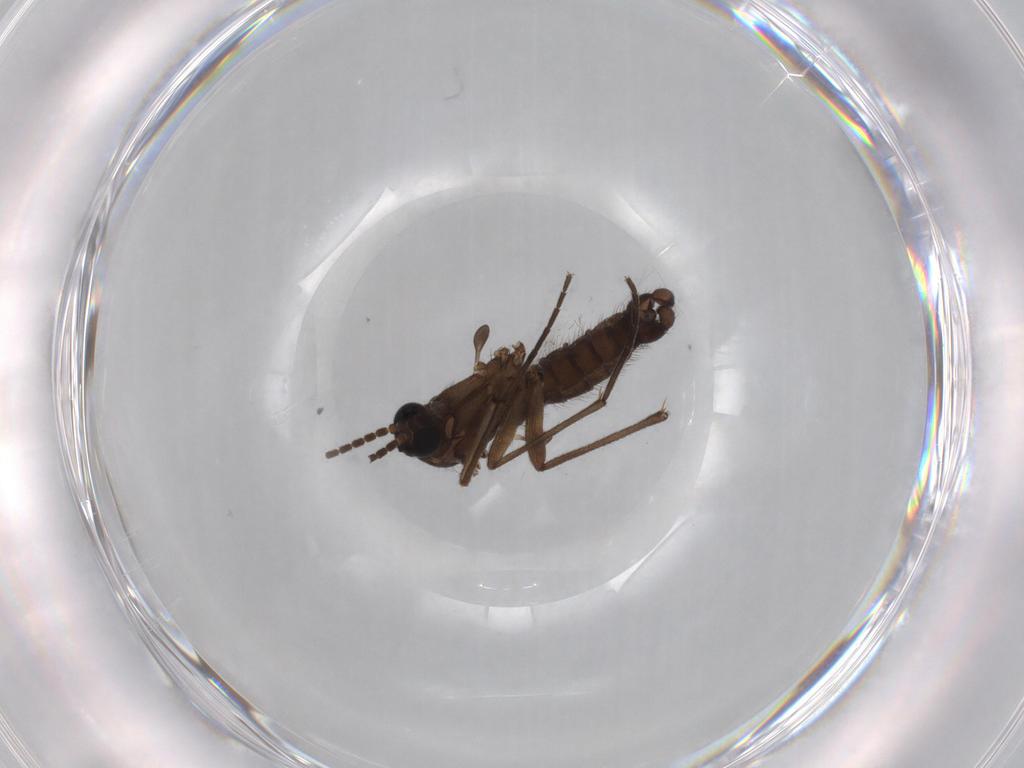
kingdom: Animalia
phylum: Arthropoda
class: Insecta
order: Diptera
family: Sciaridae
